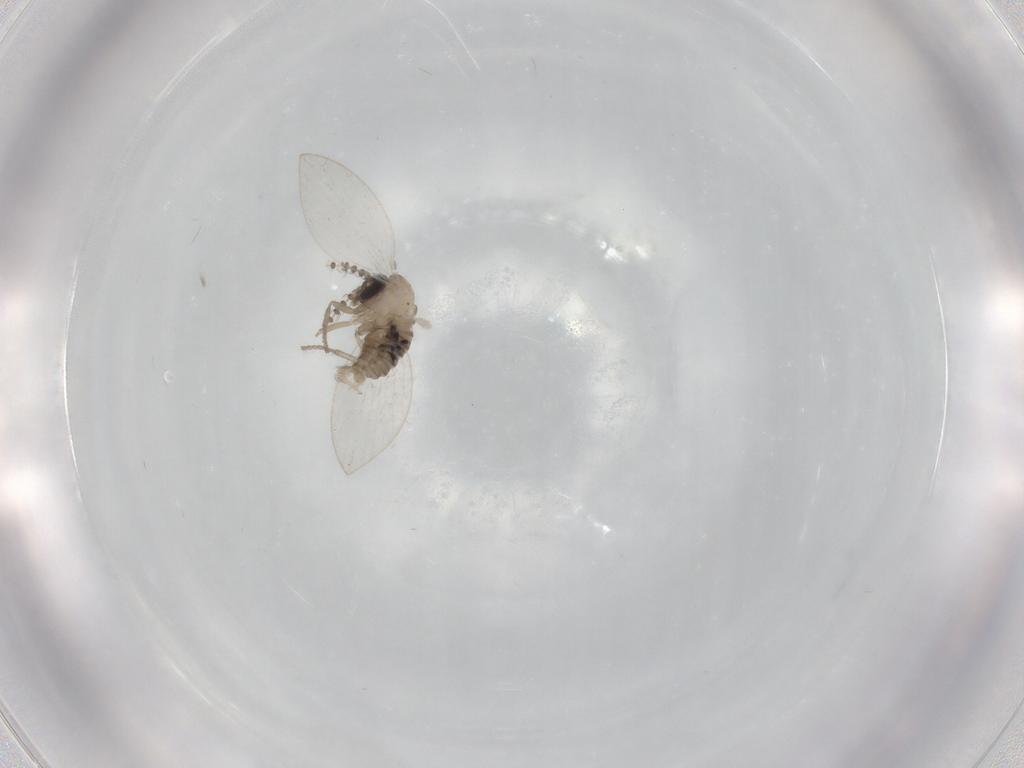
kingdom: Animalia
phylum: Arthropoda
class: Insecta
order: Diptera
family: Psychodidae
